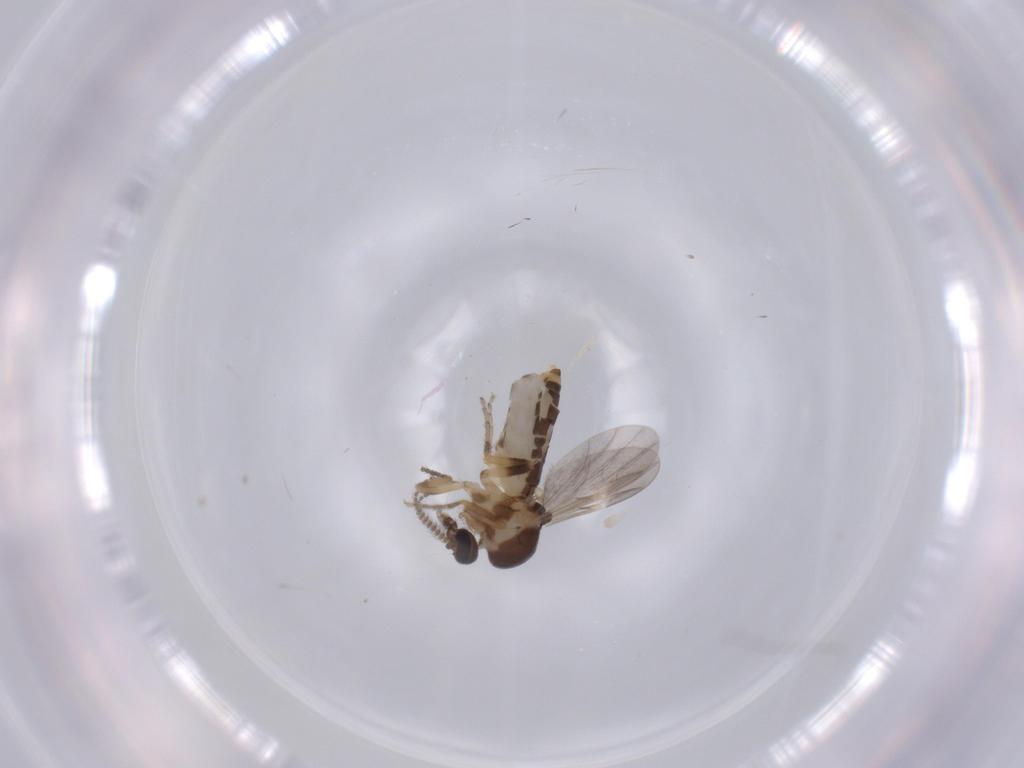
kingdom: Animalia
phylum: Arthropoda
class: Insecta
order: Diptera
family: Ceratopogonidae
